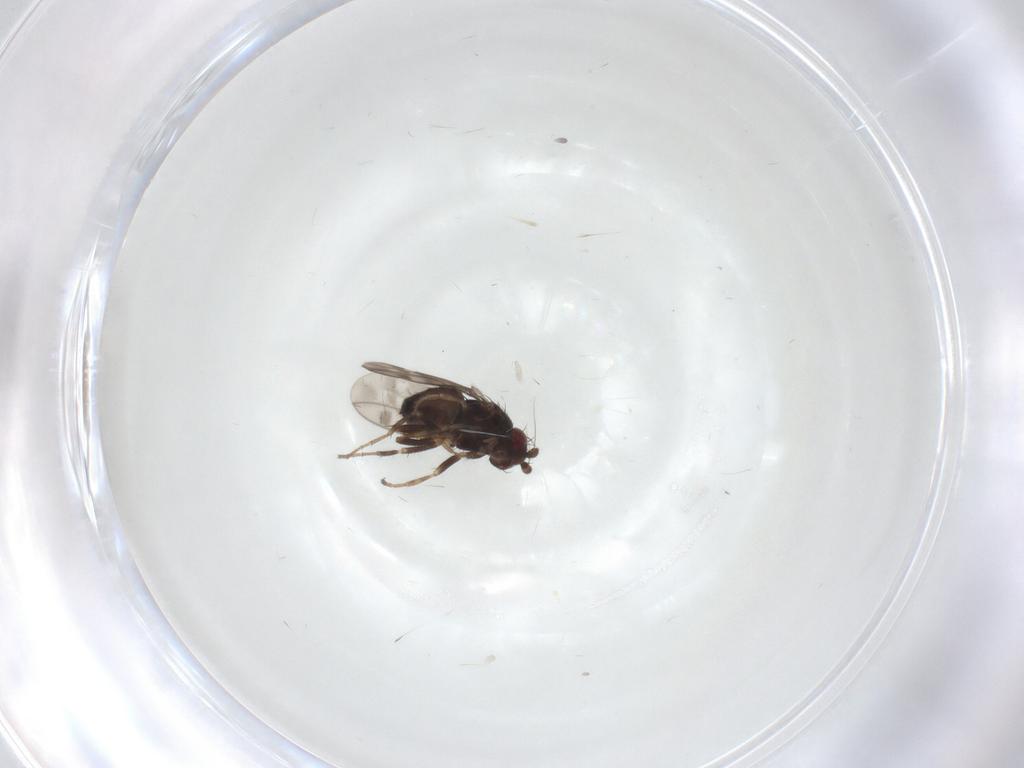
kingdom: Animalia
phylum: Arthropoda
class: Insecta
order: Diptera
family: Sphaeroceridae
